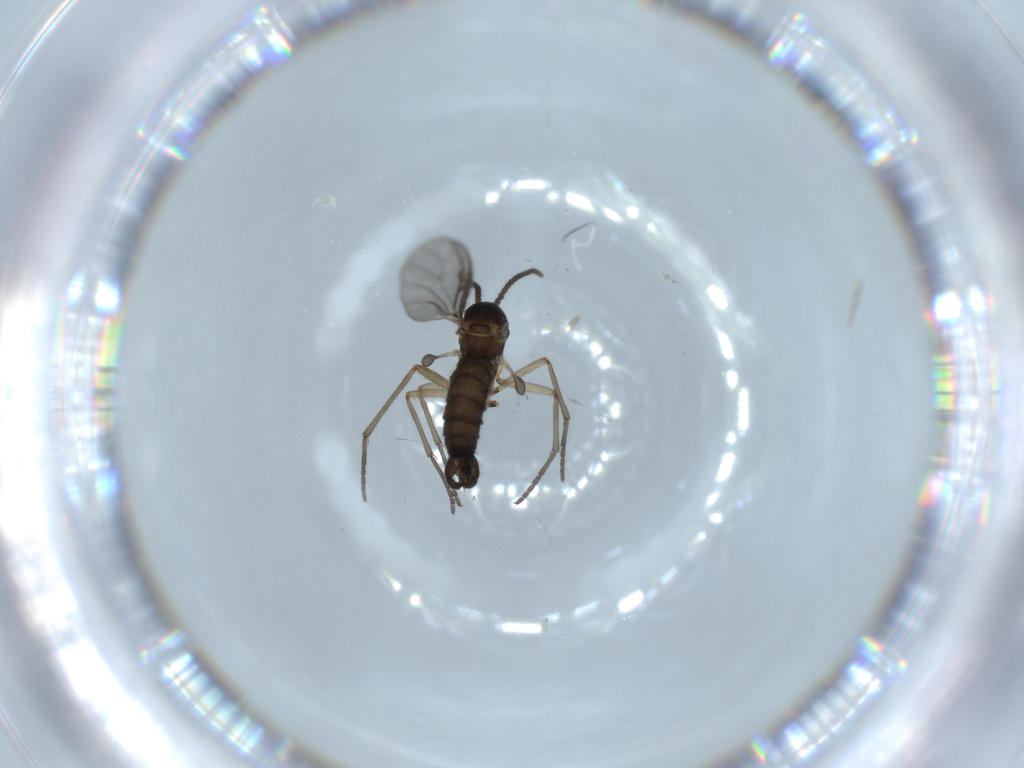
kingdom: Animalia
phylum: Arthropoda
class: Insecta
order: Diptera
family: Sciaridae
